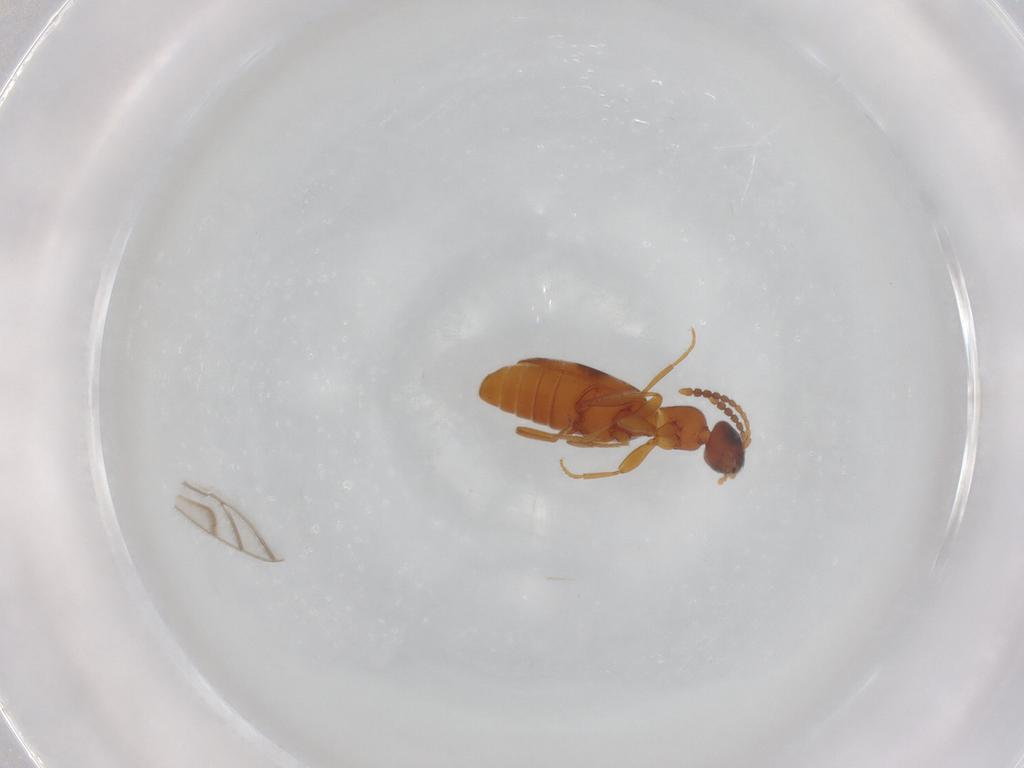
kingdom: Animalia
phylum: Arthropoda
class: Insecta
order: Coleoptera
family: Anthicidae
